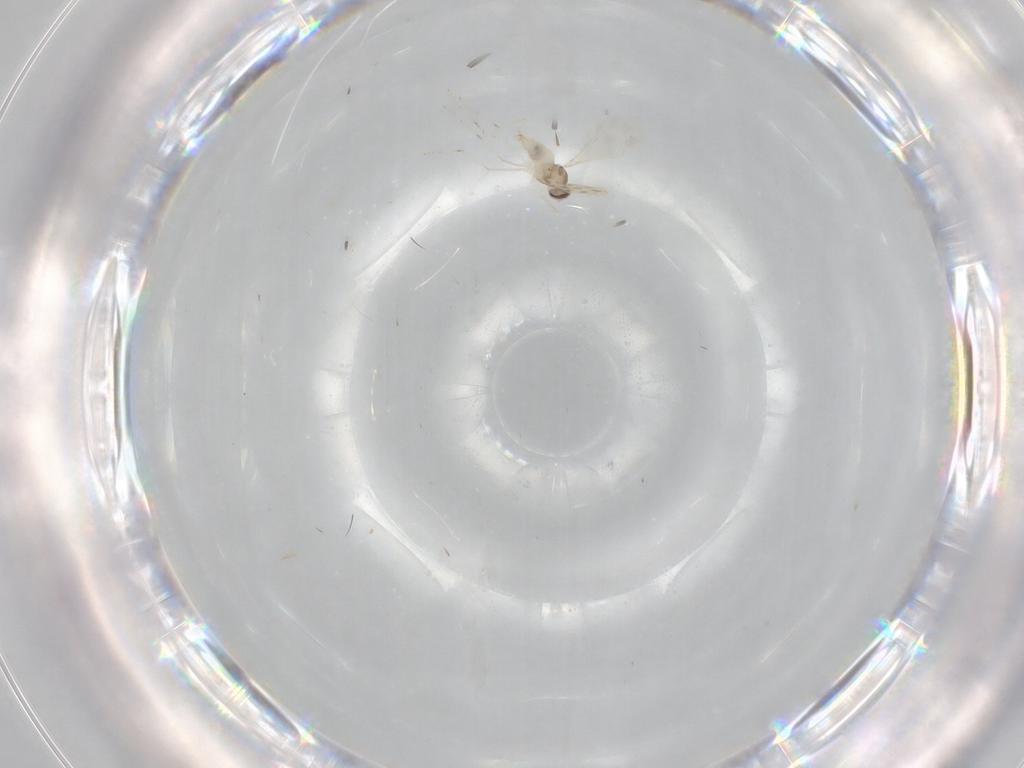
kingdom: Animalia
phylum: Arthropoda
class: Insecta
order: Diptera
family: Cecidomyiidae
